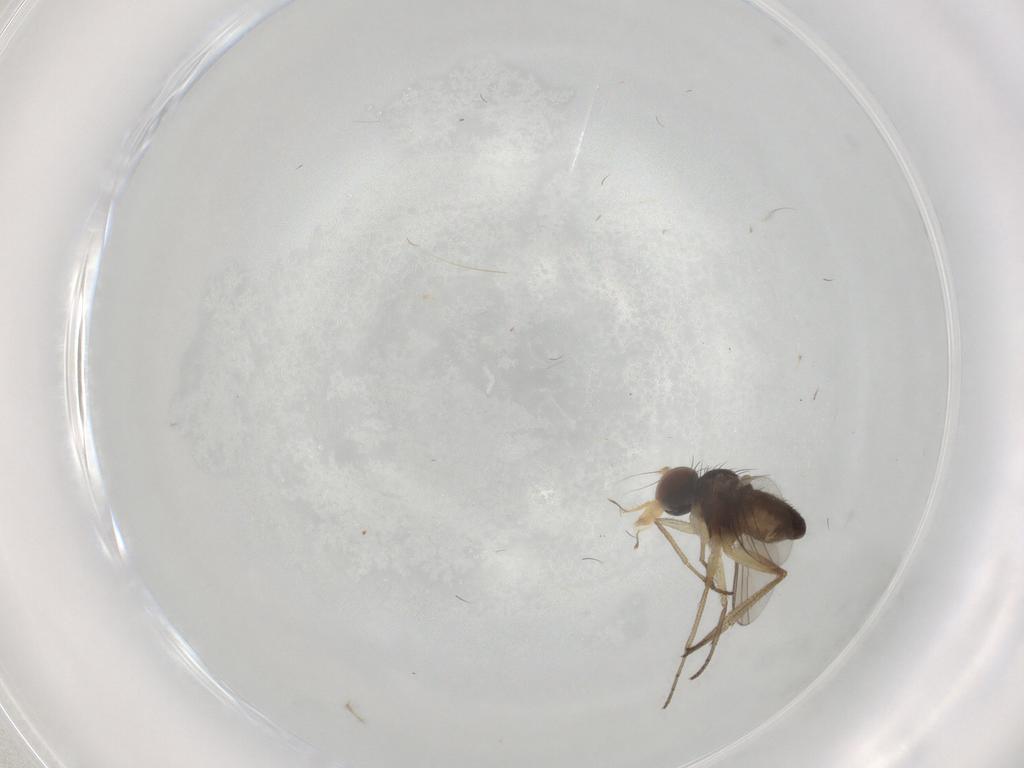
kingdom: Animalia
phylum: Arthropoda
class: Insecta
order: Diptera
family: Dolichopodidae
